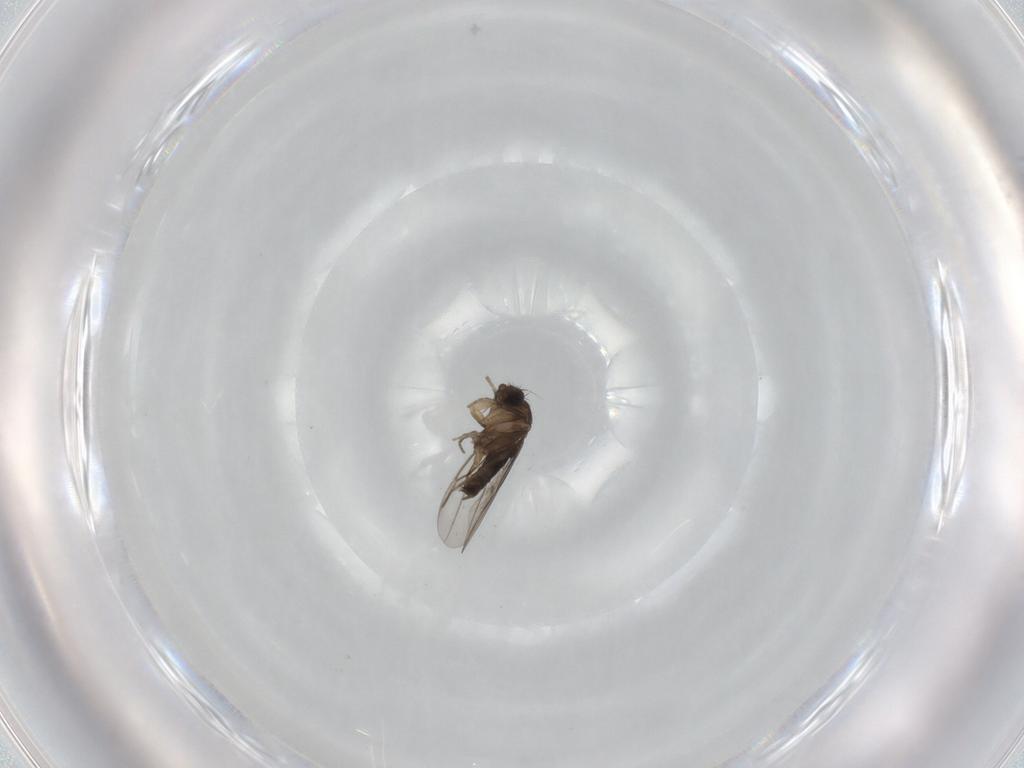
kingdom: Animalia
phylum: Arthropoda
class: Insecta
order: Diptera
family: Phoridae
